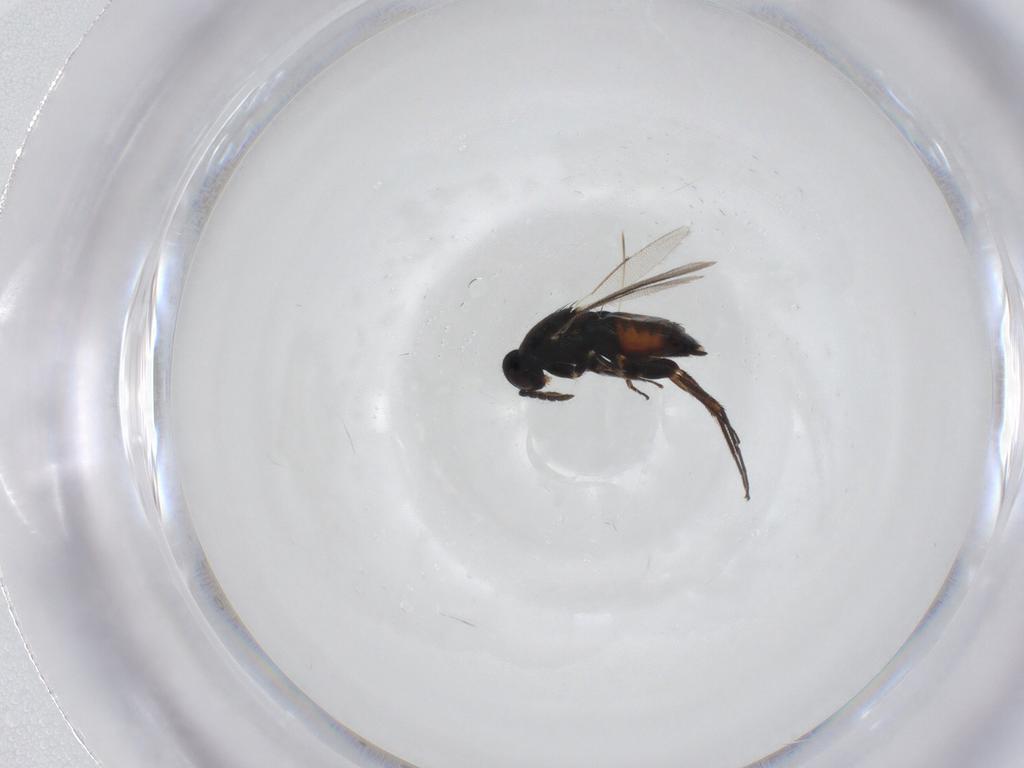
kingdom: Animalia
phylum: Arthropoda
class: Insecta
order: Hymenoptera
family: Eulophidae
